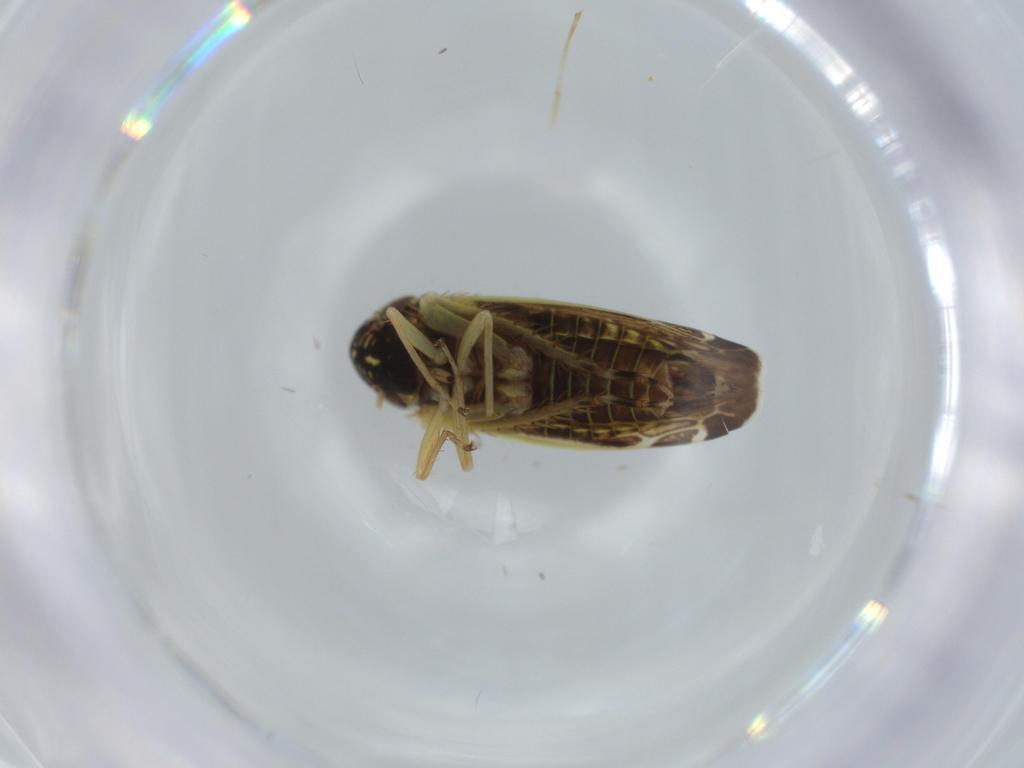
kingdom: Animalia
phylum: Arthropoda
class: Insecta
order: Hemiptera
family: Cicadellidae
